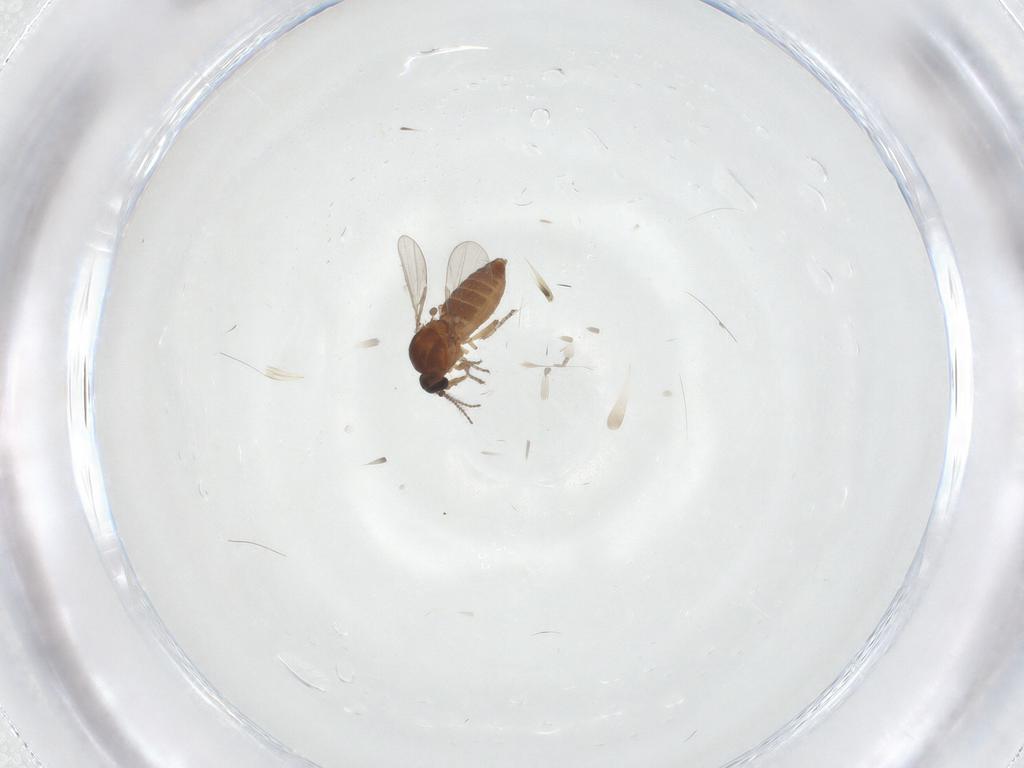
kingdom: Animalia
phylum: Arthropoda
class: Insecta
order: Diptera
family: Ceratopogonidae
